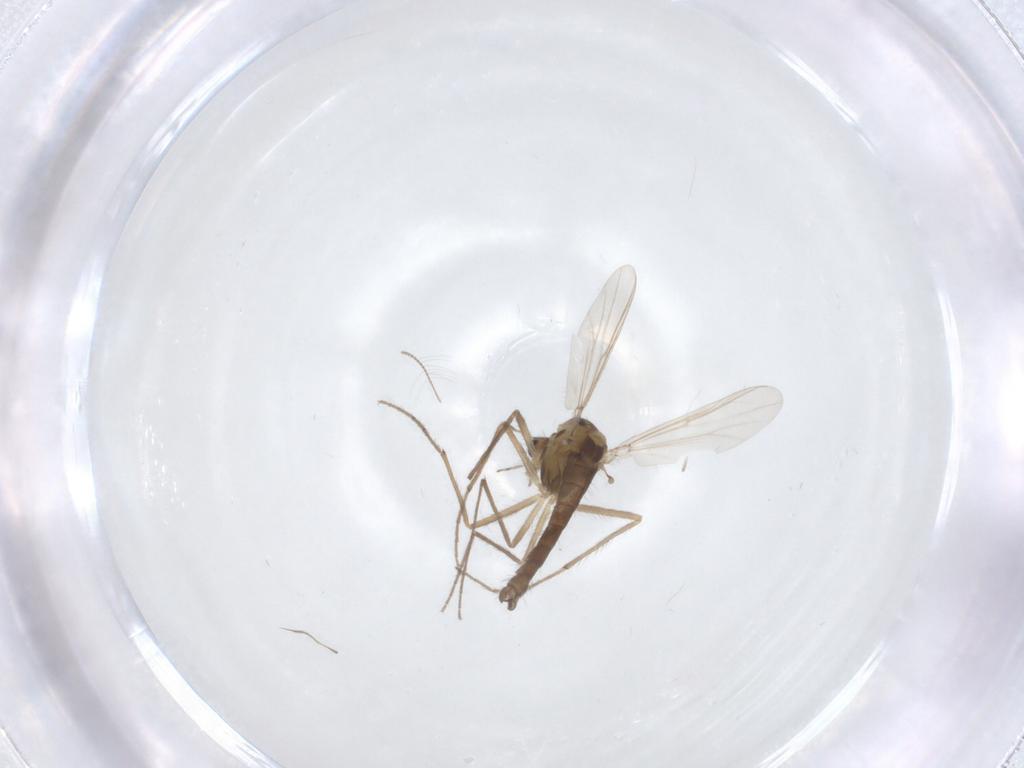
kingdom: Animalia
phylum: Arthropoda
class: Insecta
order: Diptera
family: Chironomidae
